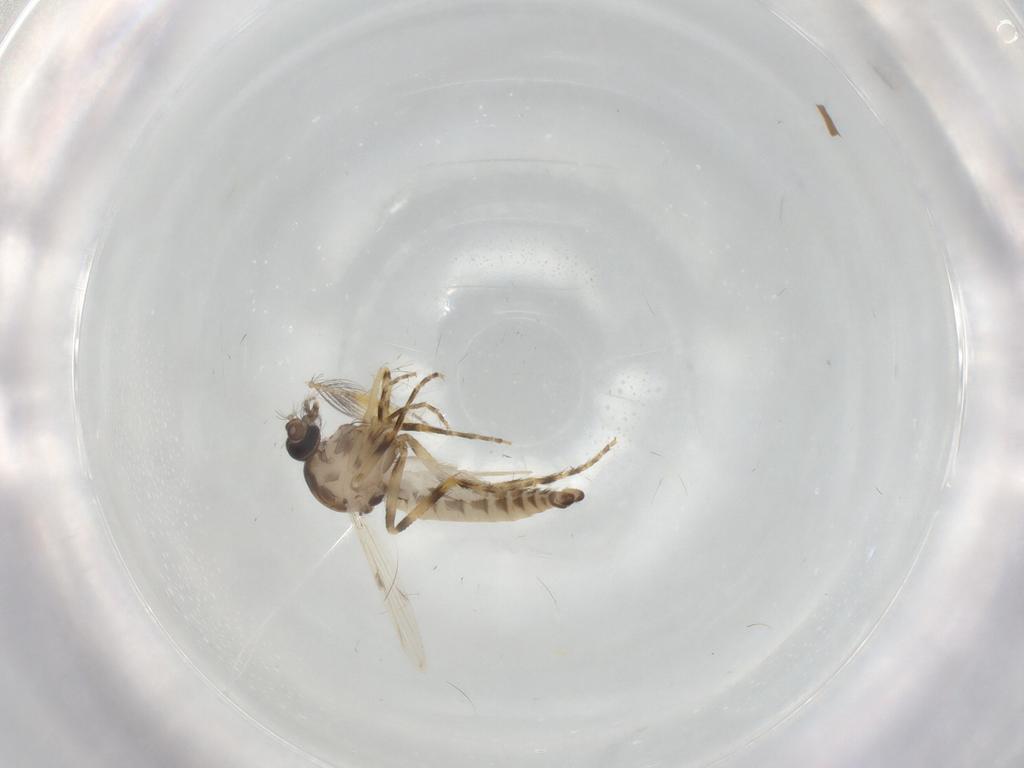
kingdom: Animalia
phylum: Arthropoda
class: Insecta
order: Diptera
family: Ceratopogonidae
